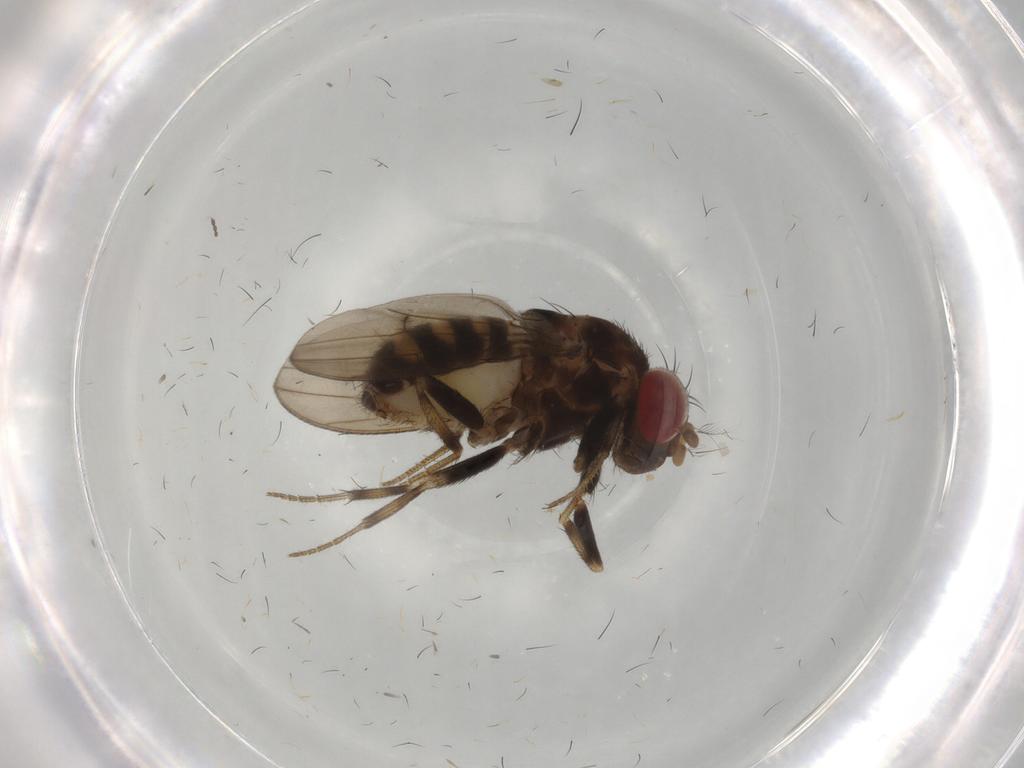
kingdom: Animalia
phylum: Arthropoda
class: Insecta
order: Diptera
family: Drosophilidae
